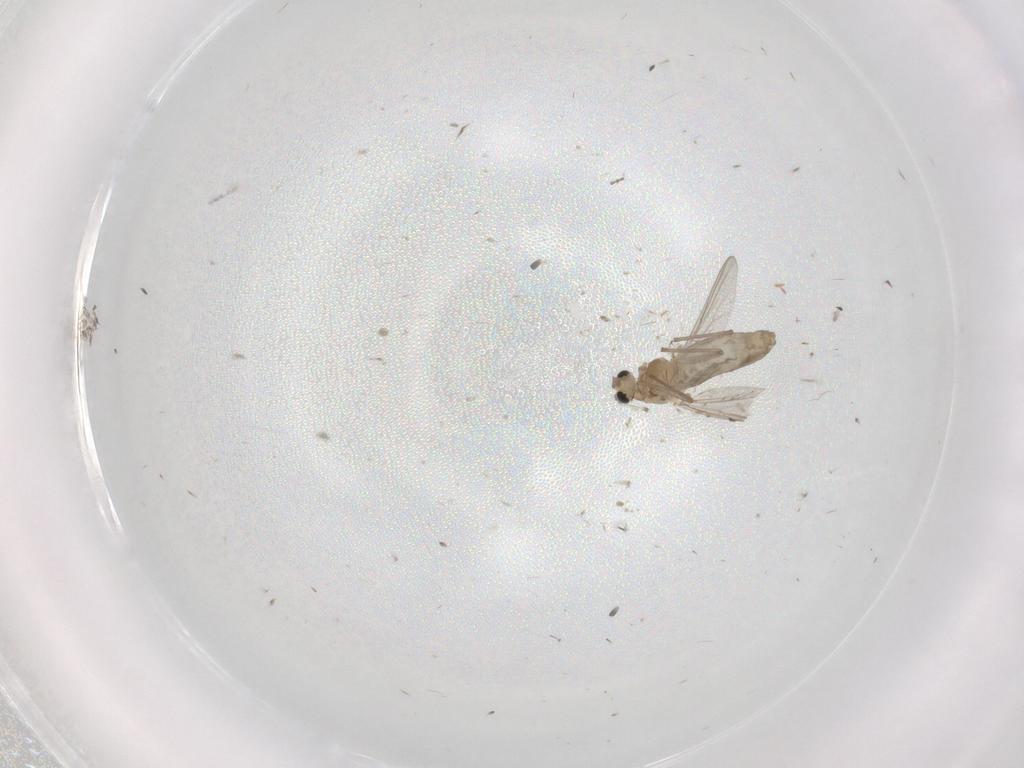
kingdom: Animalia
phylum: Arthropoda
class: Insecta
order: Diptera
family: Chironomidae
